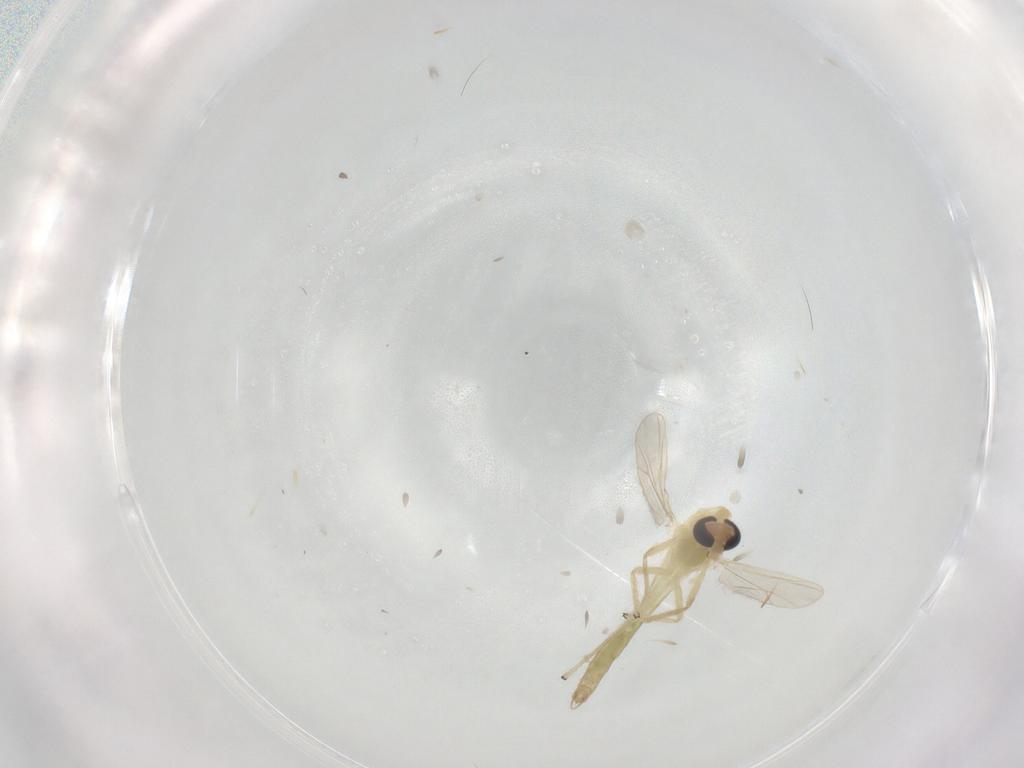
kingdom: Animalia
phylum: Arthropoda
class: Insecta
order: Diptera
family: Chironomidae
